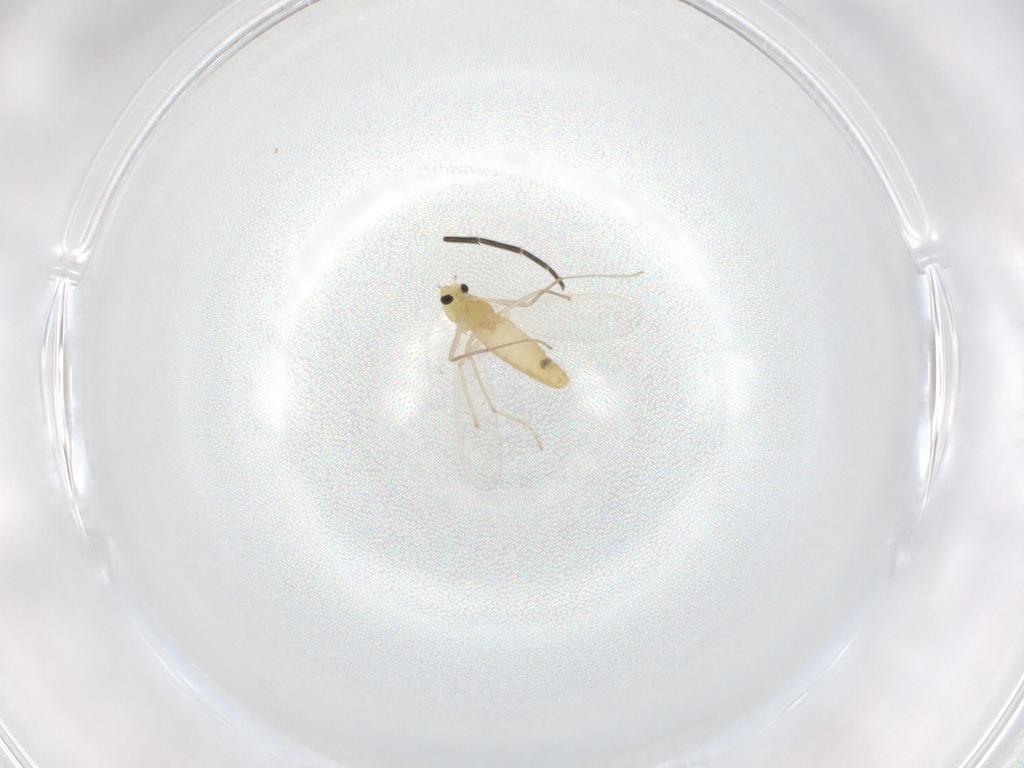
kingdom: Animalia
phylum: Arthropoda
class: Insecta
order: Diptera
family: Chironomidae
